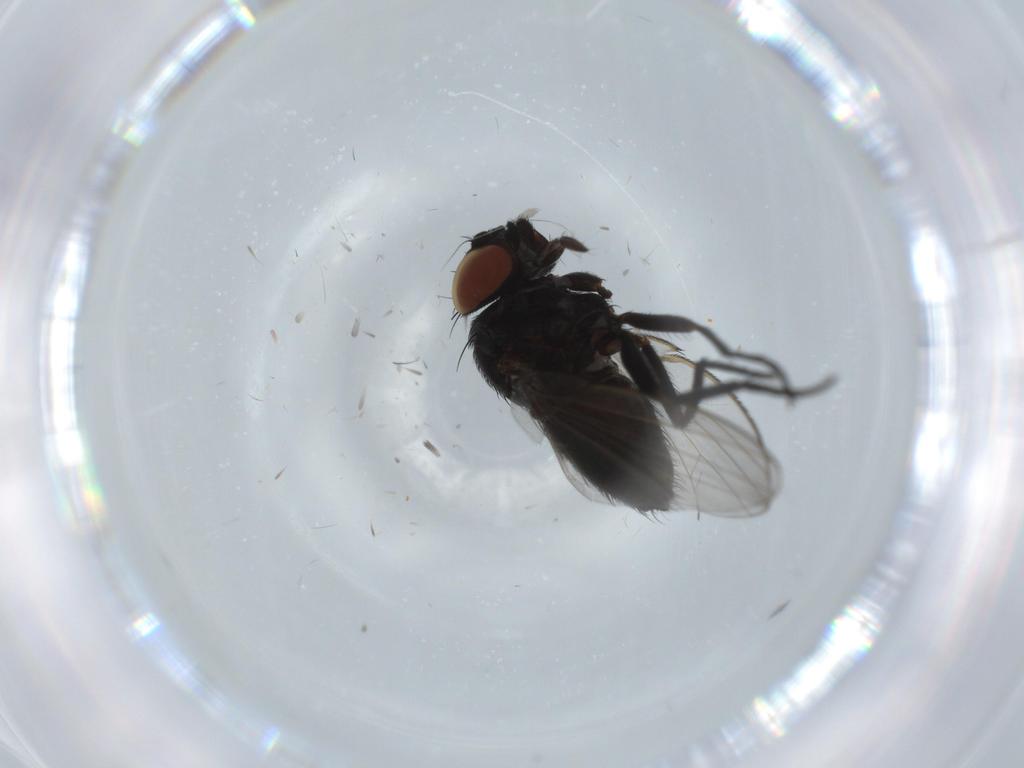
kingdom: Animalia
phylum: Arthropoda
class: Insecta
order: Diptera
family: Milichiidae
